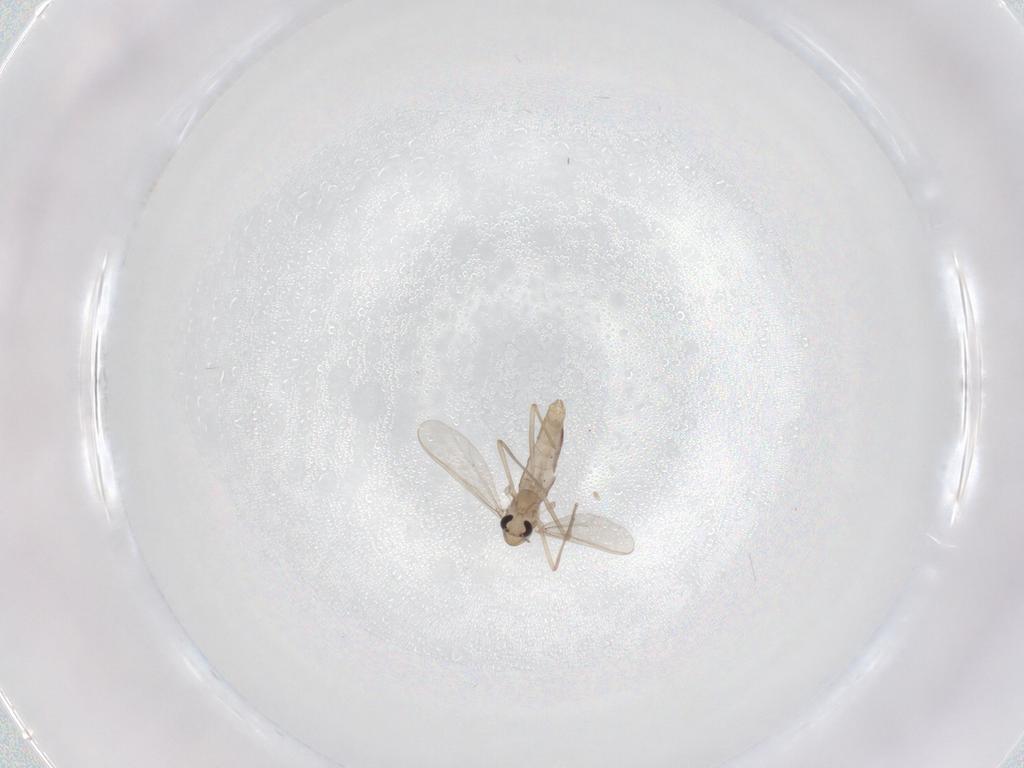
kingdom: Animalia
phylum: Arthropoda
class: Insecta
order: Diptera
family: Chironomidae
